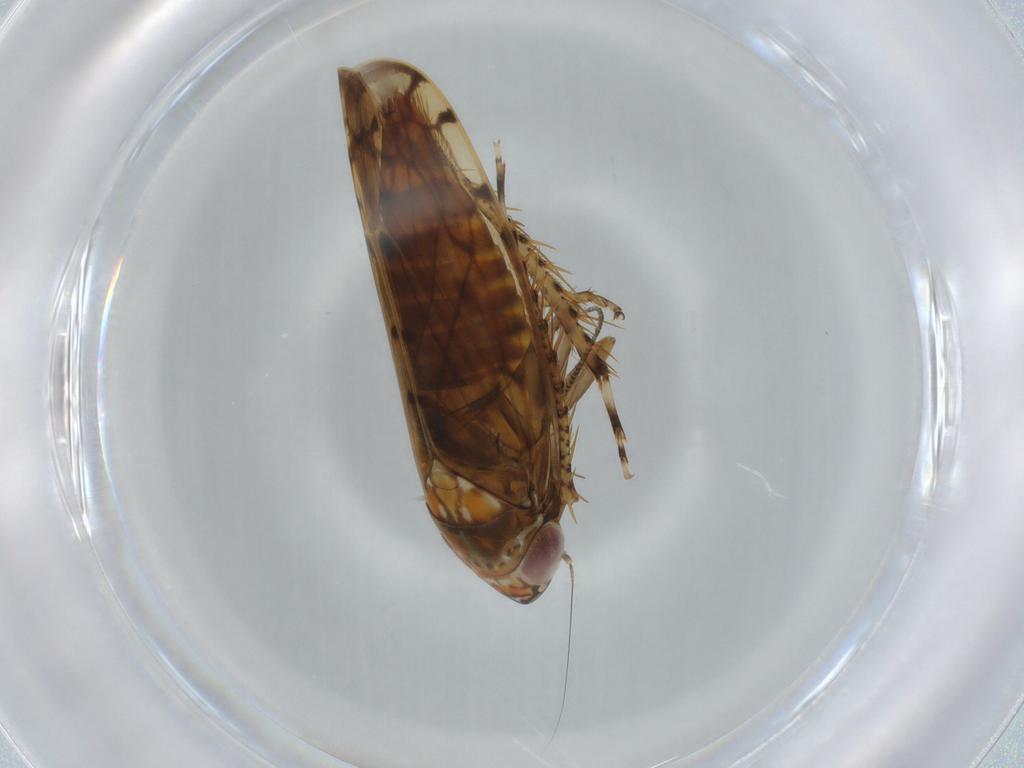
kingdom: Animalia
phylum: Arthropoda
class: Insecta
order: Hemiptera
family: Cicadellidae
